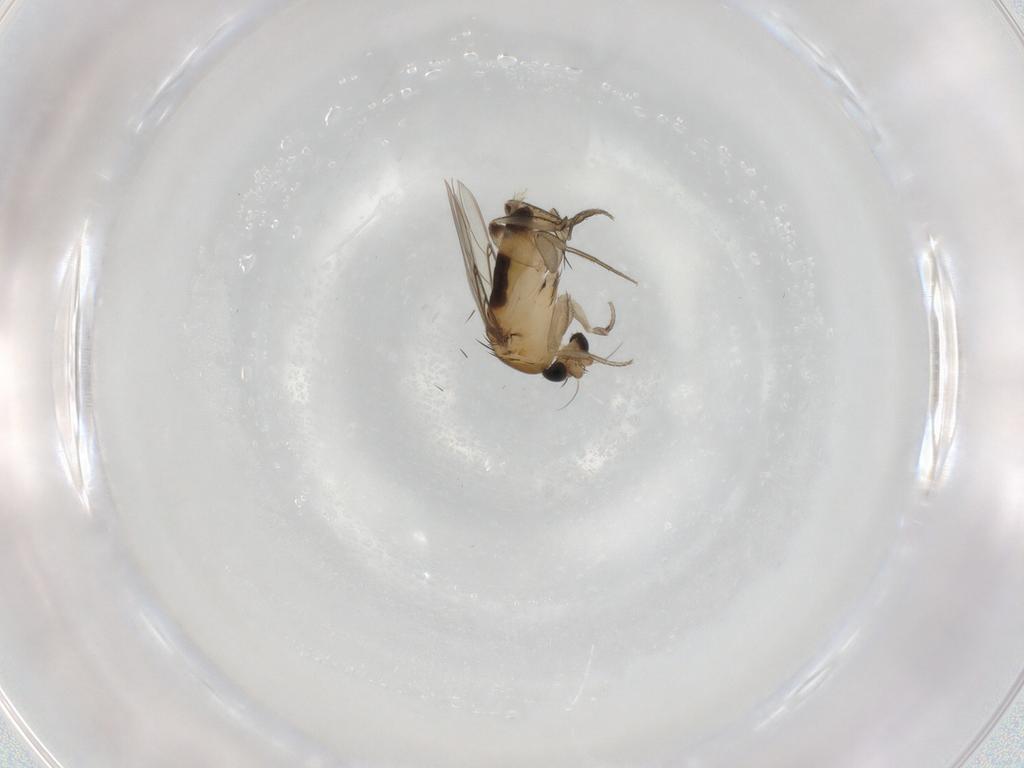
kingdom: Animalia
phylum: Arthropoda
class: Insecta
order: Diptera
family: Phoridae
